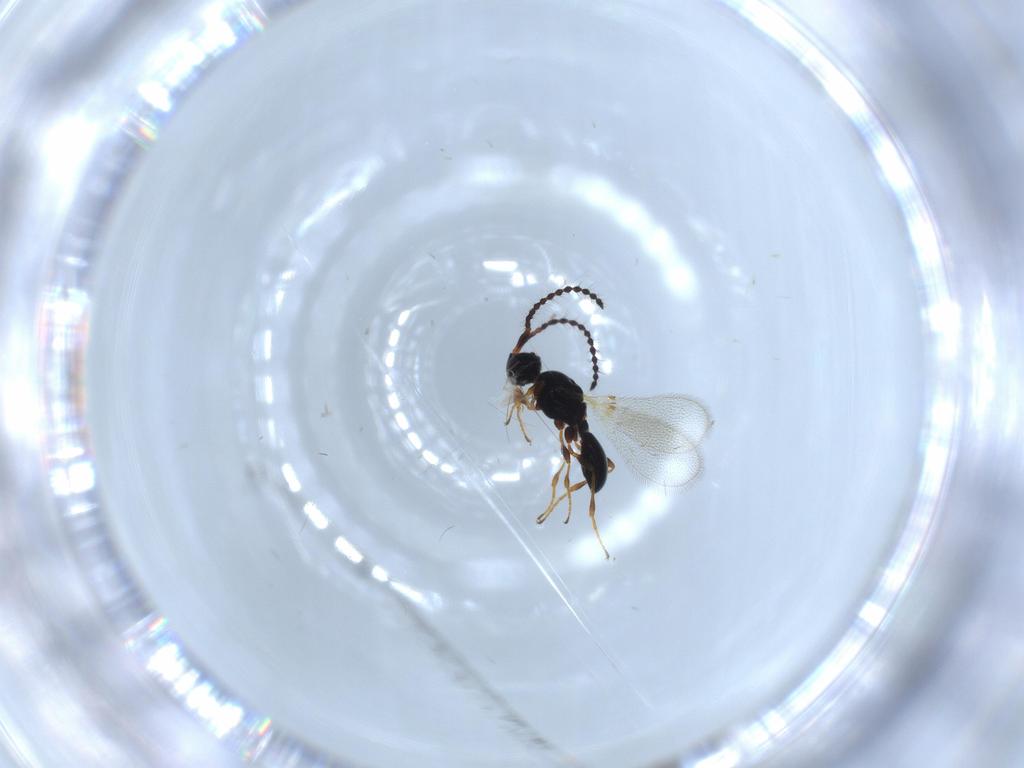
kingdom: Animalia
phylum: Arthropoda
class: Insecta
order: Hymenoptera
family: Diapriidae
